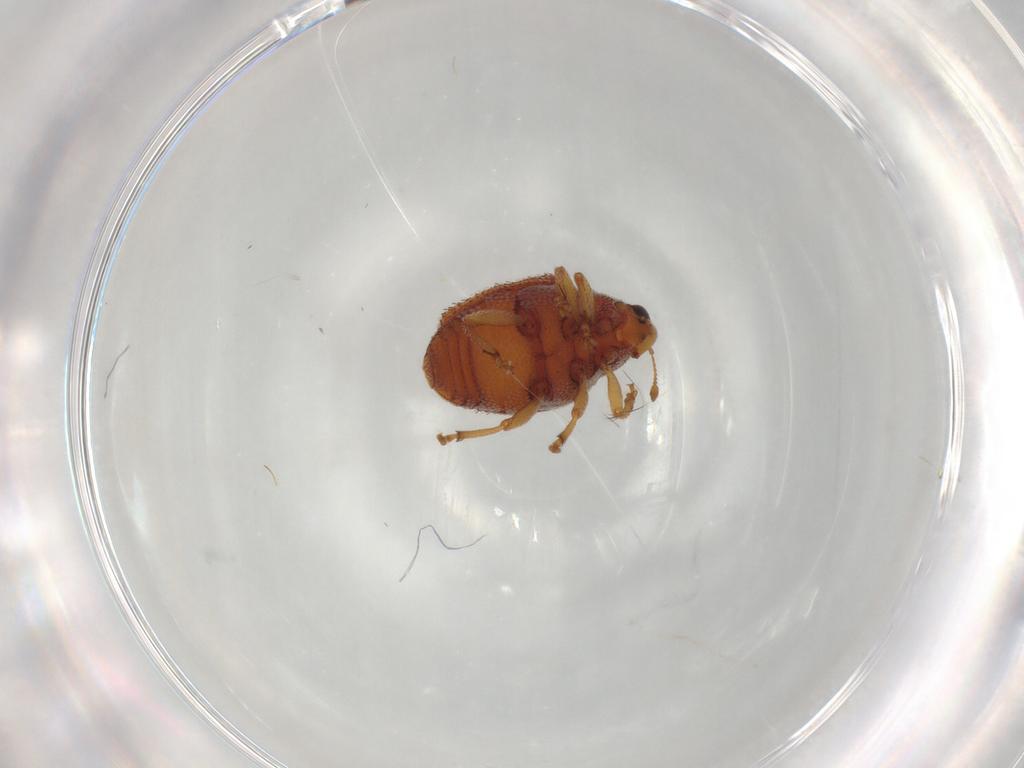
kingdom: Animalia
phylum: Arthropoda
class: Insecta
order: Coleoptera
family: Curculionidae
